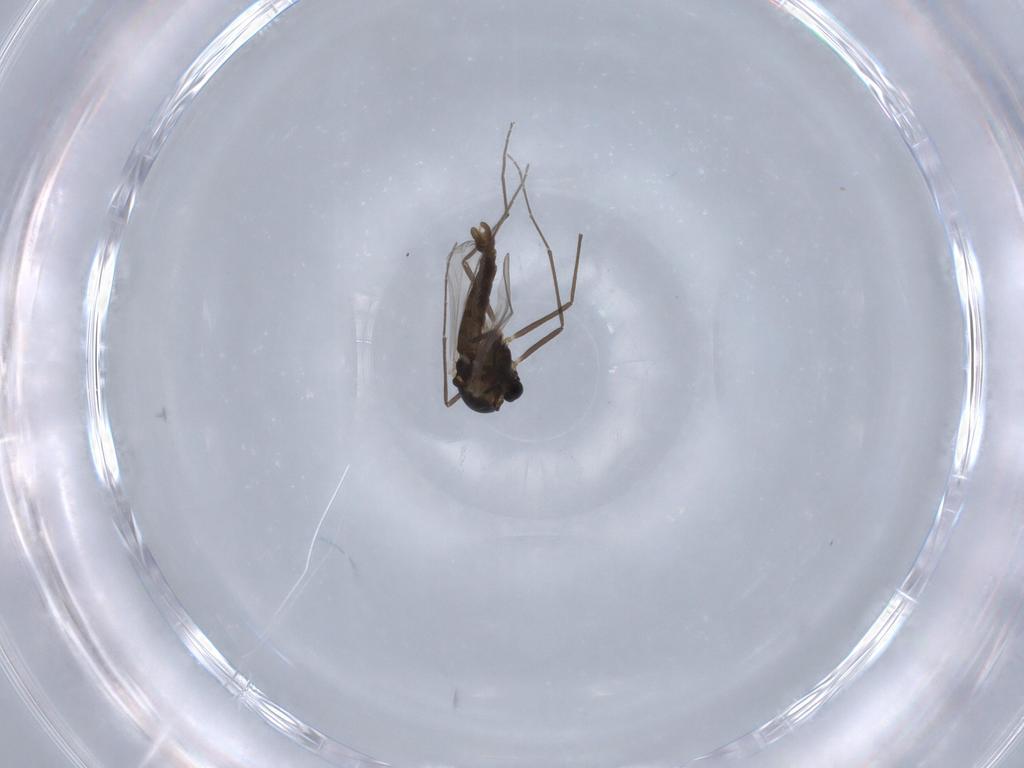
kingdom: Animalia
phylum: Arthropoda
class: Insecta
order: Diptera
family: Chironomidae
